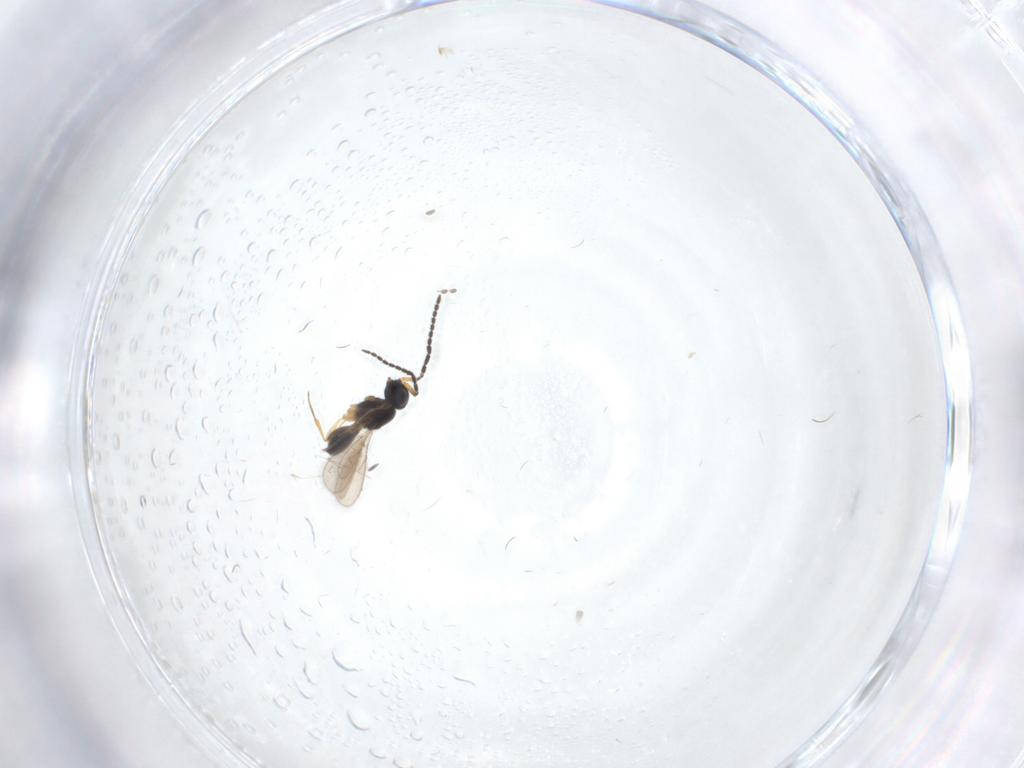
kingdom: Animalia
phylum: Arthropoda
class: Insecta
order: Hymenoptera
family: Scelionidae
